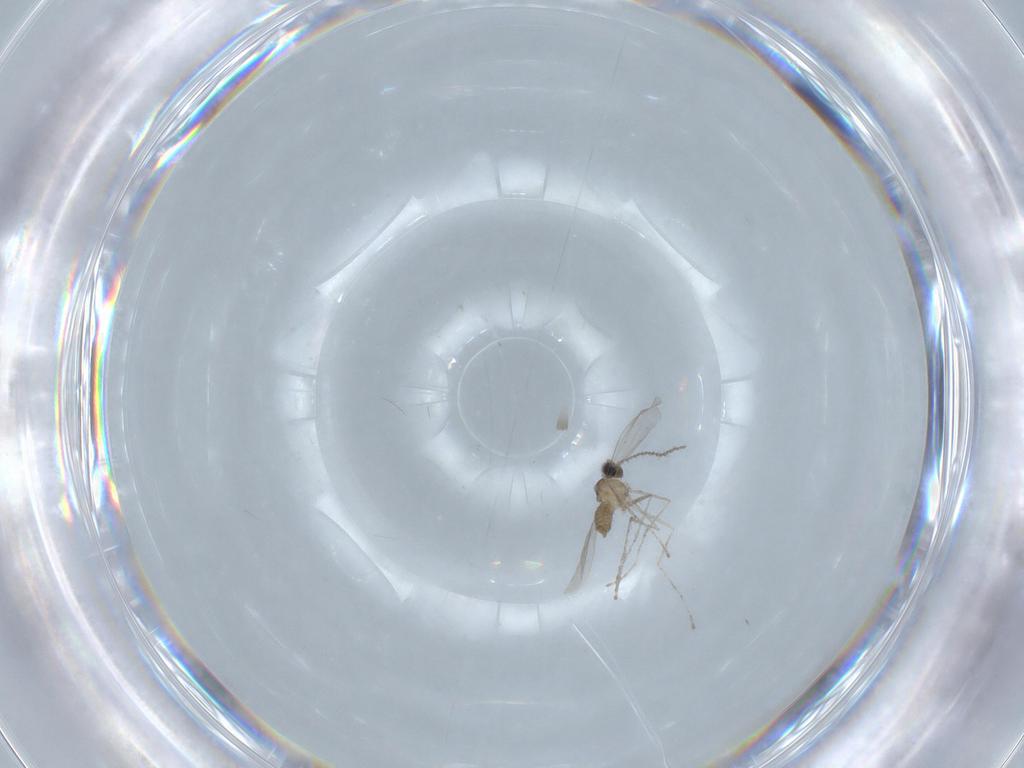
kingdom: Animalia
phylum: Arthropoda
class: Insecta
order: Diptera
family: Cecidomyiidae
